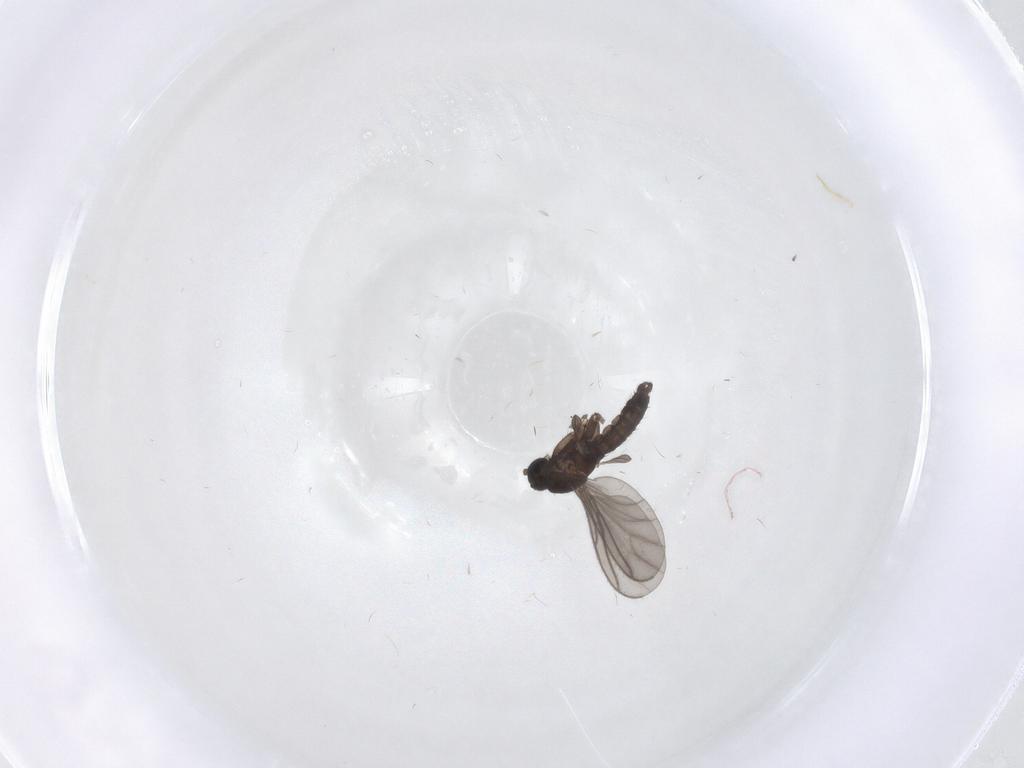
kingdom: Animalia
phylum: Arthropoda
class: Insecta
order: Diptera
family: Sciaridae
